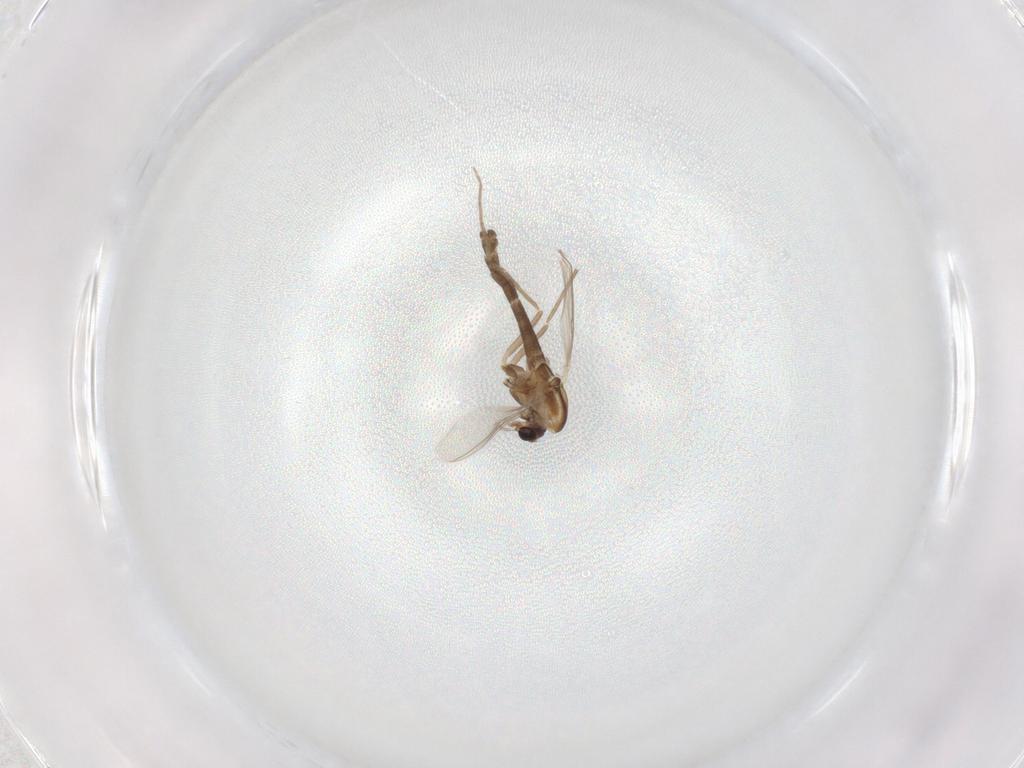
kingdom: Animalia
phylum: Arthropoda
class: Insecta
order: Diptera
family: Chironomidae
